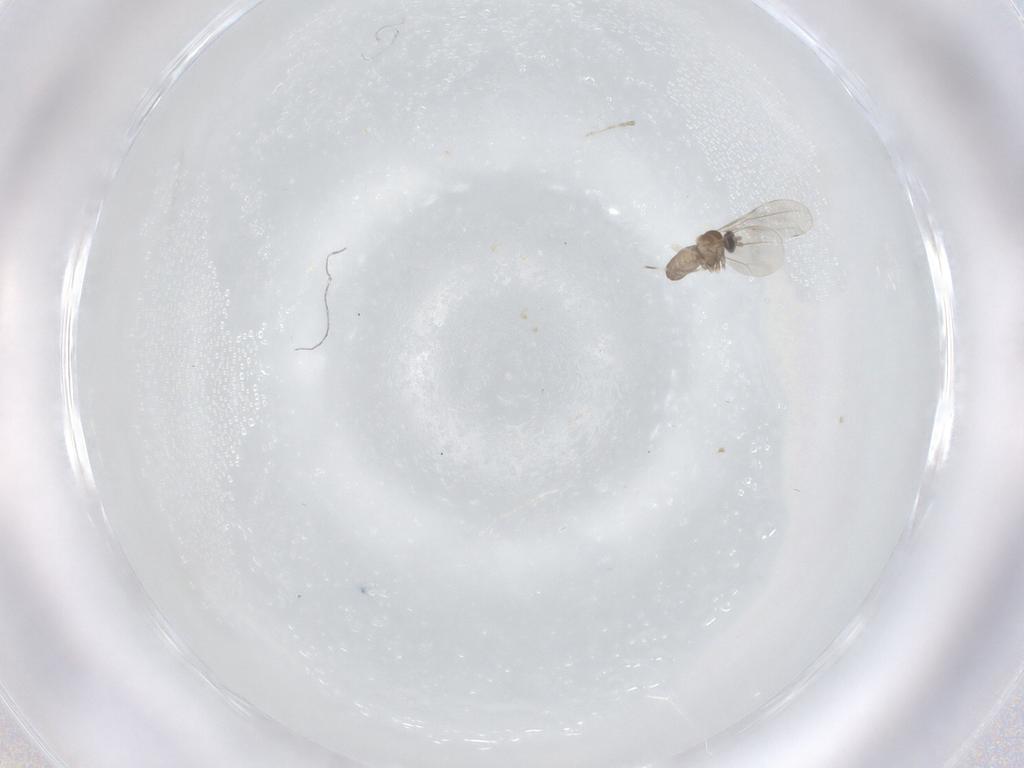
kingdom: Animalia
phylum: Arthropoda
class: Insecta
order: Diptera
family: Cecidomyiidae
